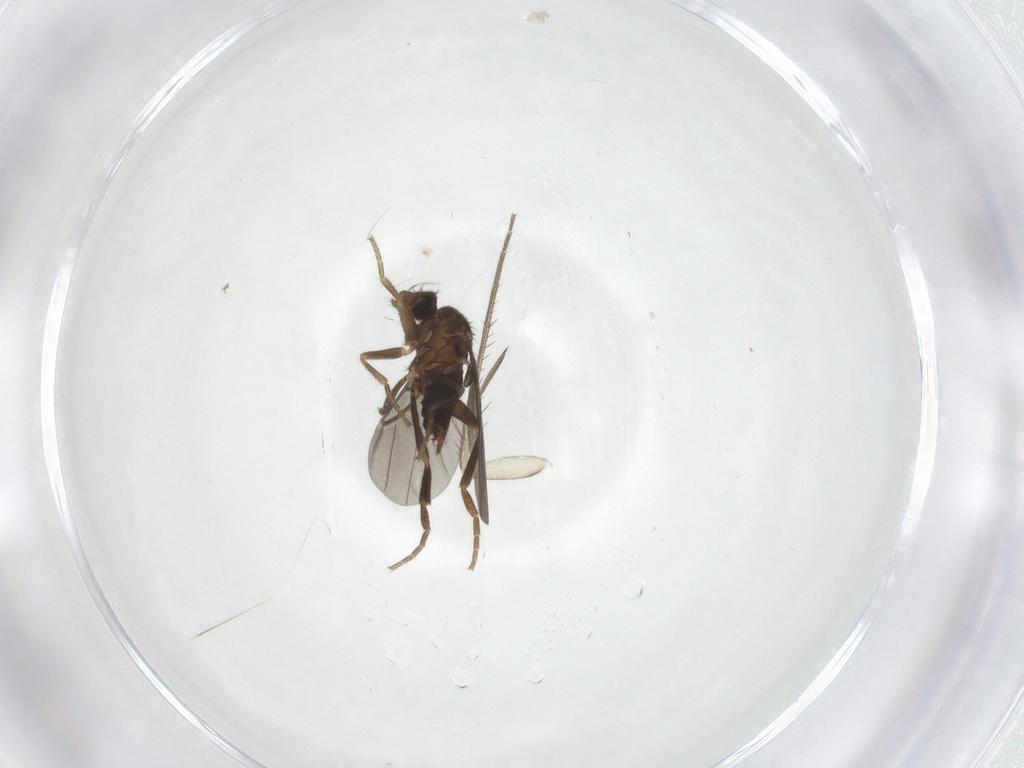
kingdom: Animalia
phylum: Arthropoda
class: Insecta
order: Diptera
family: Phoridae
